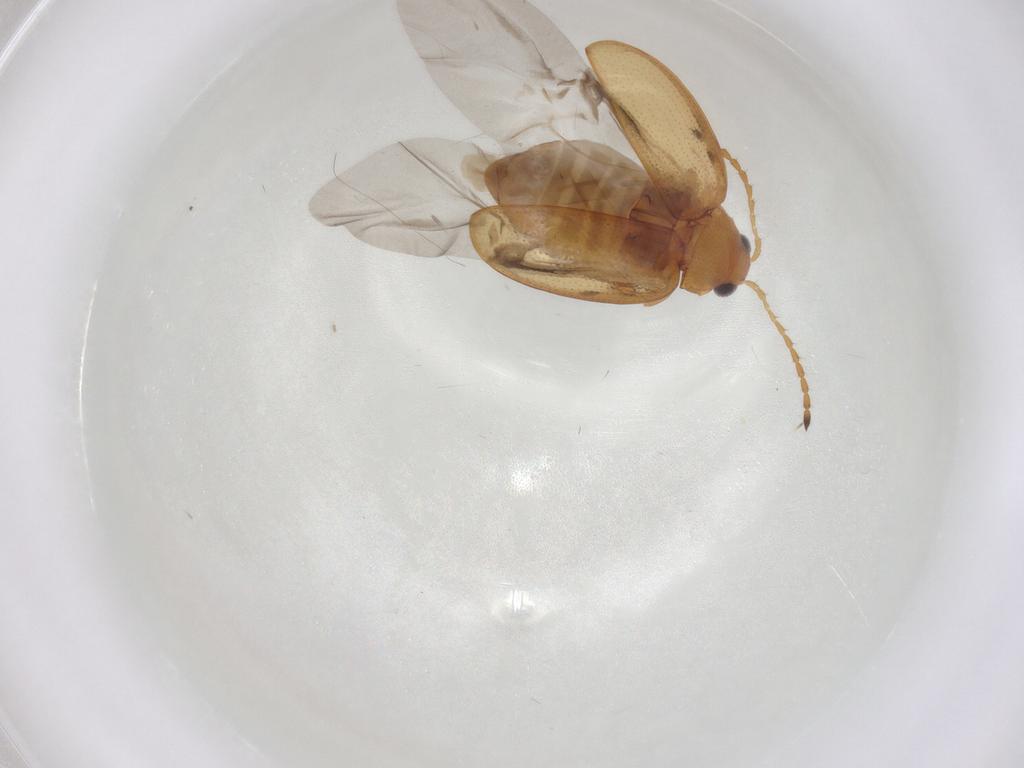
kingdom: Animalia
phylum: Arthropoda
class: Insecta
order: Coleoptera
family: Chrysomelidae
